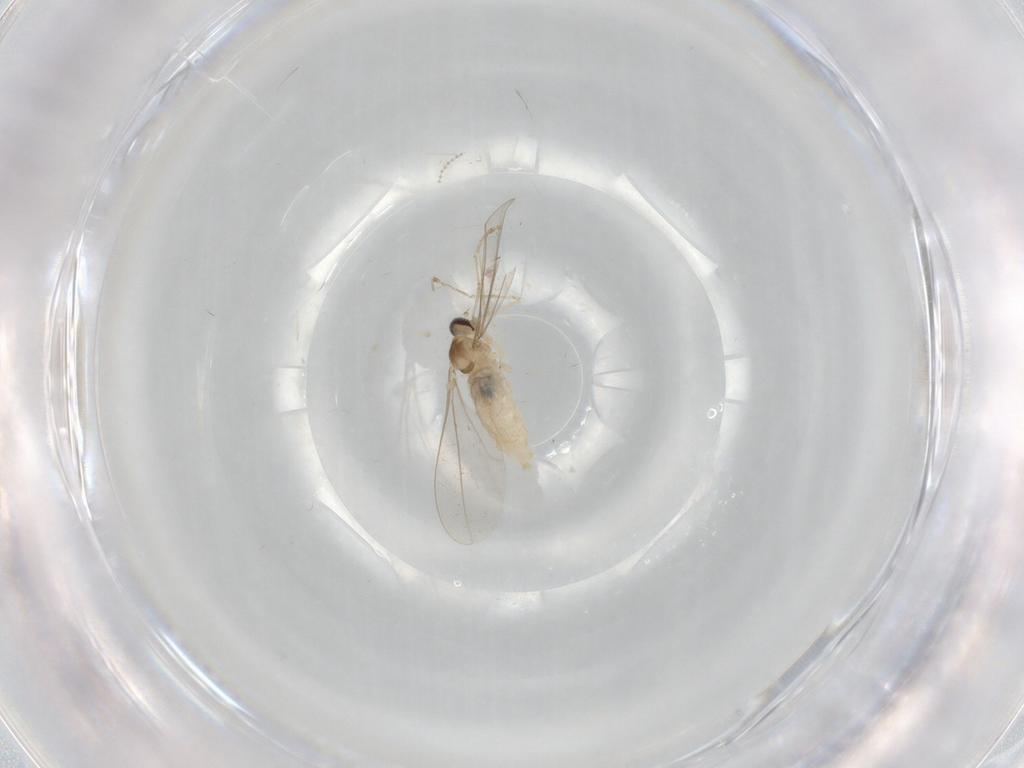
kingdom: Animalia
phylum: Arthropoda
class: Insecta
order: Diptera
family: Cecidomyiidae
